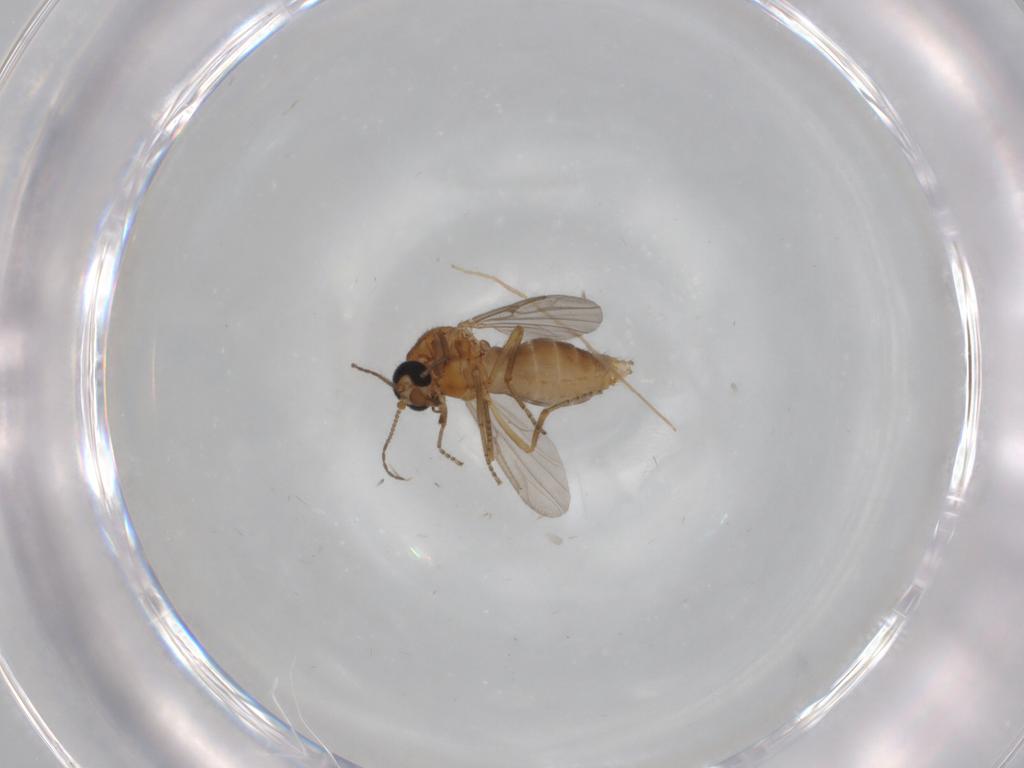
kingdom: Animalia
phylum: Arthropoda
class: Insecta
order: Diptera
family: Ceratopogonidae
